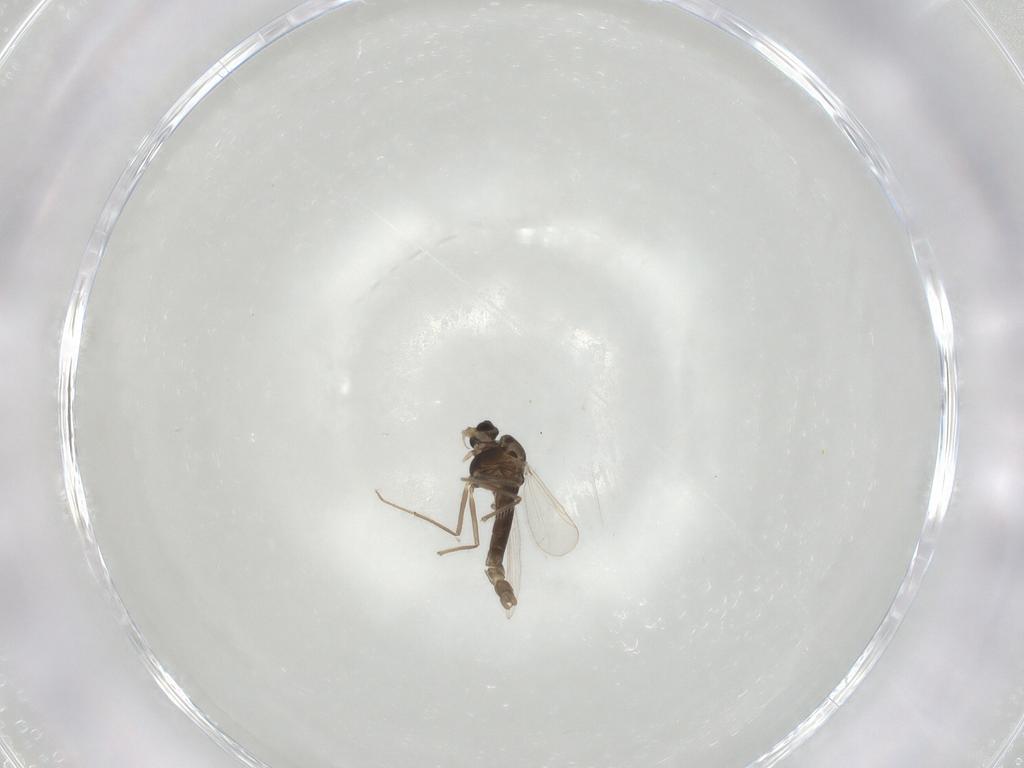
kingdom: Animalia
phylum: Arthropoda
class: Insecta
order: Diptera
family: Chironomidae
